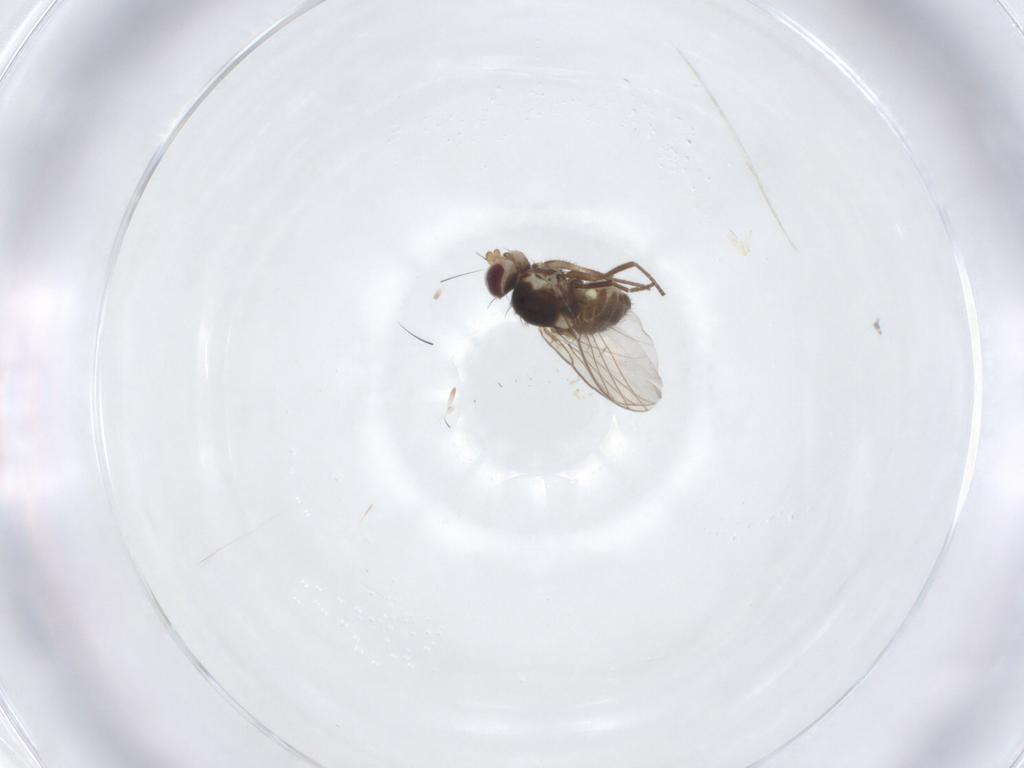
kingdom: Animalia
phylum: Arthropoda
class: Insecta
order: Diptera
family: Agromyzidae
